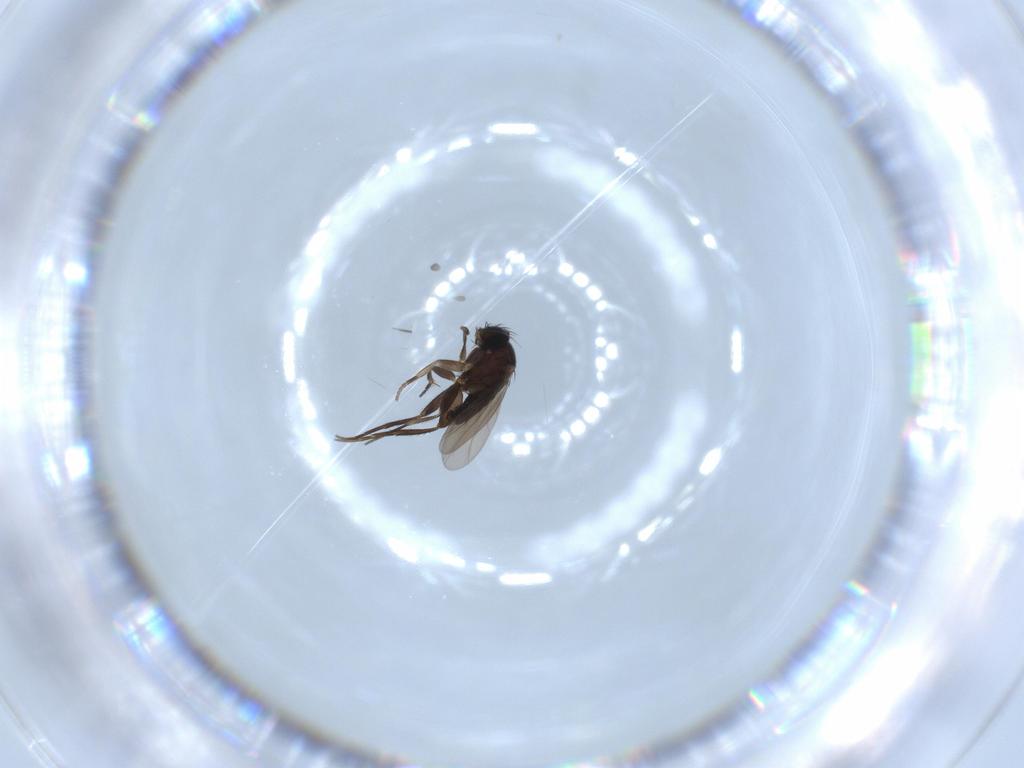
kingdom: Animalia
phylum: Arthropoda
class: Insecta
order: Diptera
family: Phoridae
